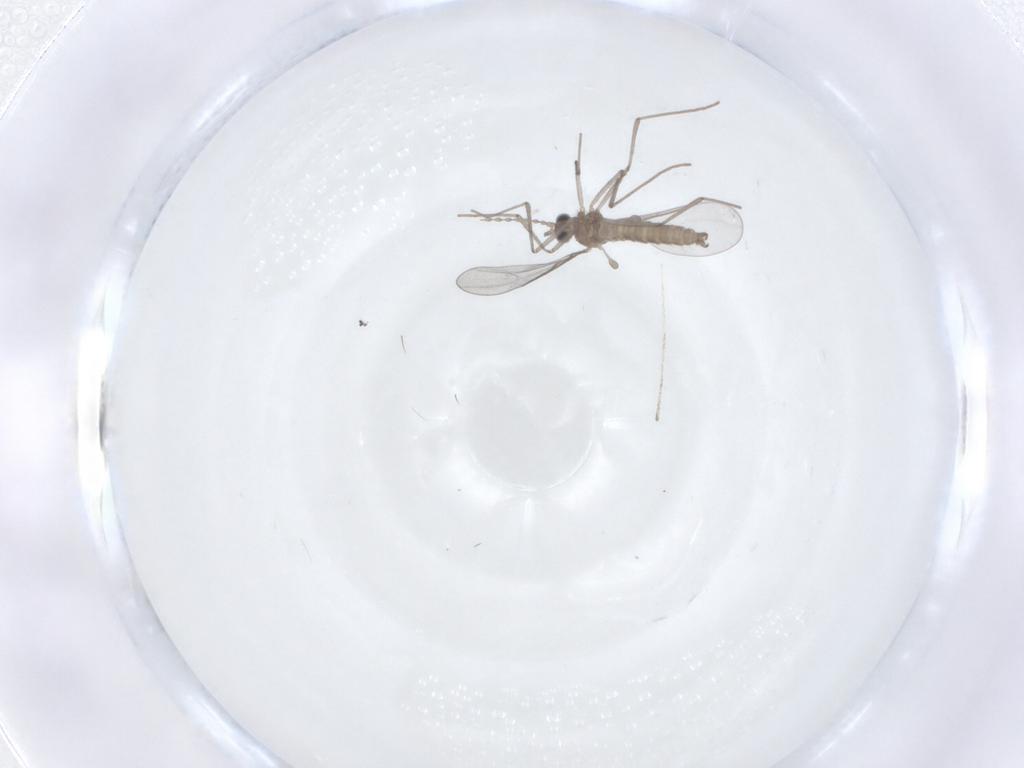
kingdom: Animalia
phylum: Arthropoda
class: Insecta
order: Diptera
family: Cecidomyiidae
